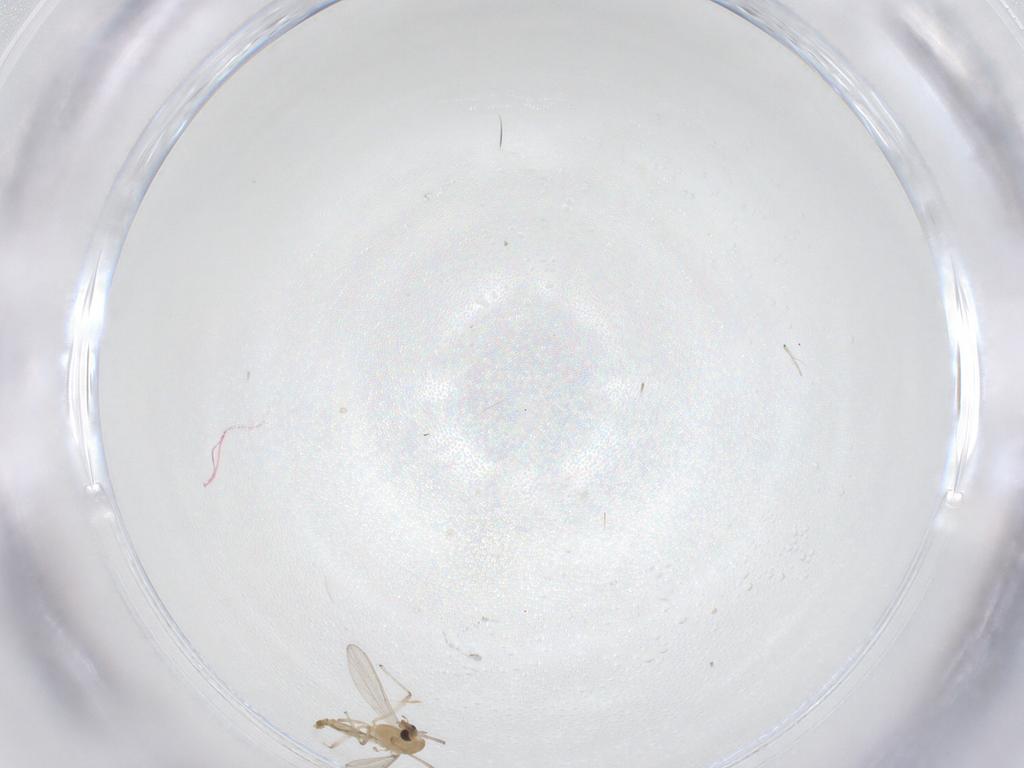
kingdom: Animalia
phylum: Arthropoda
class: Insecta
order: Diptera
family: Chironomidae
